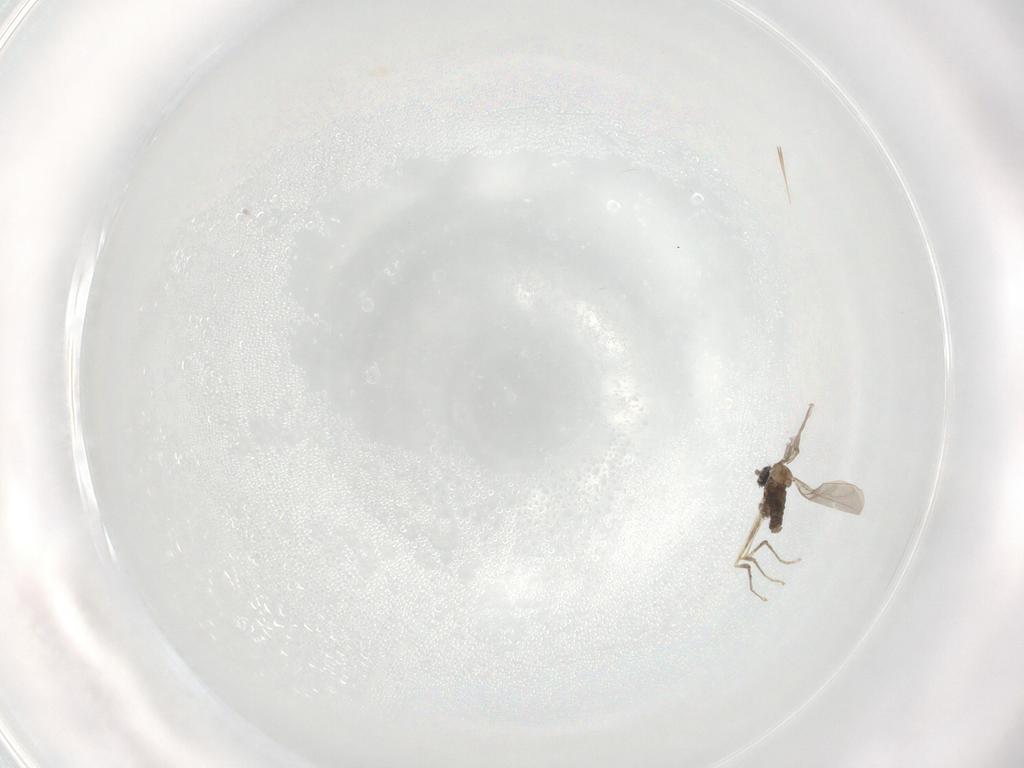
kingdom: Animalia
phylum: Arthropoda
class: Insecta
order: Diptera
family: Cecidomyiidae
